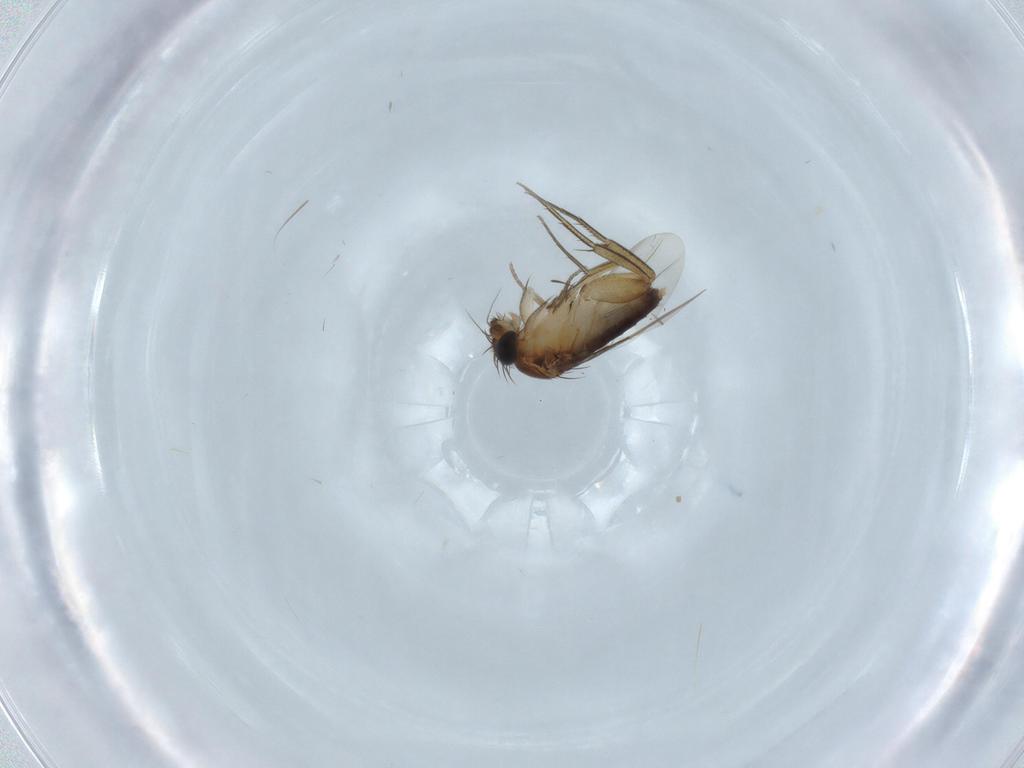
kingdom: Animalia
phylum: Arthropoda
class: Insecta
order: Diptera
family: Phoridae
